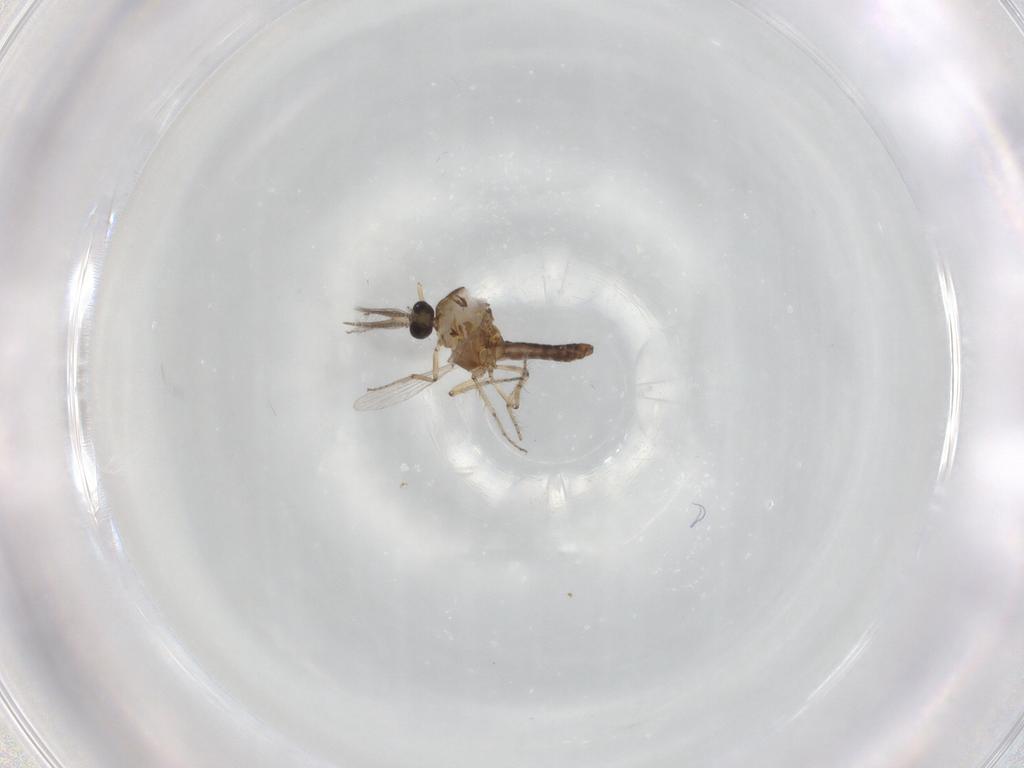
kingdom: Animalia
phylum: Arthropoda
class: Insecta
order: Diptera
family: Ceratopogonidae
